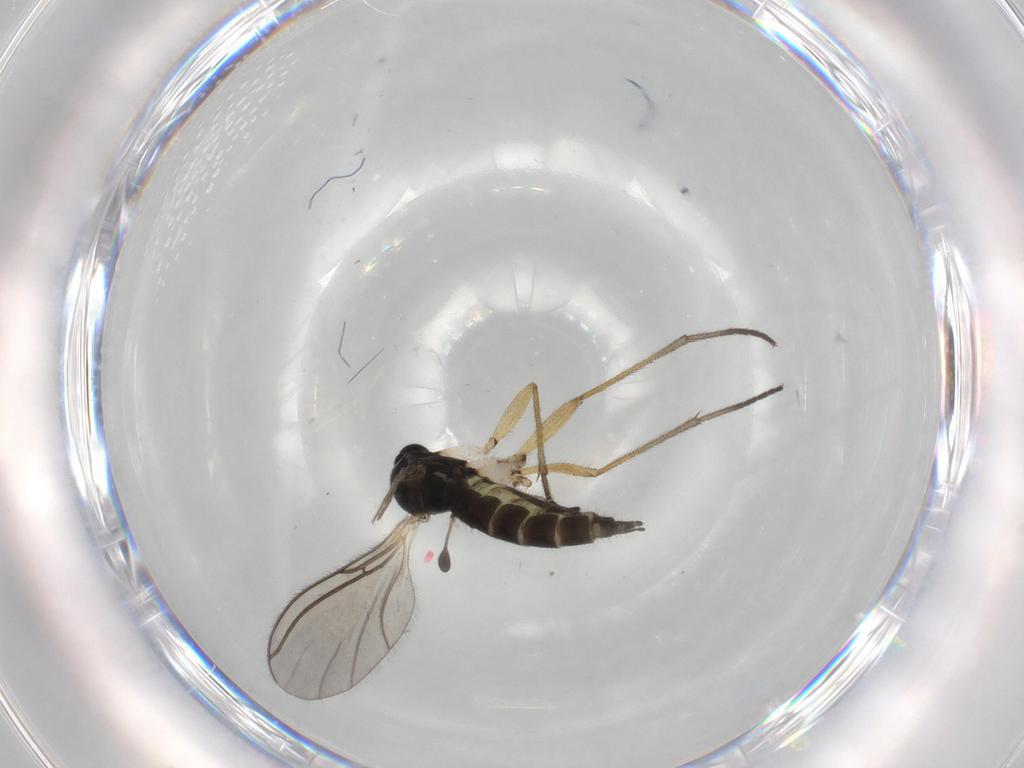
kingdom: Animalia
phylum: Arthropoda
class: Insecta
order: Diptera
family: Sciaridae
